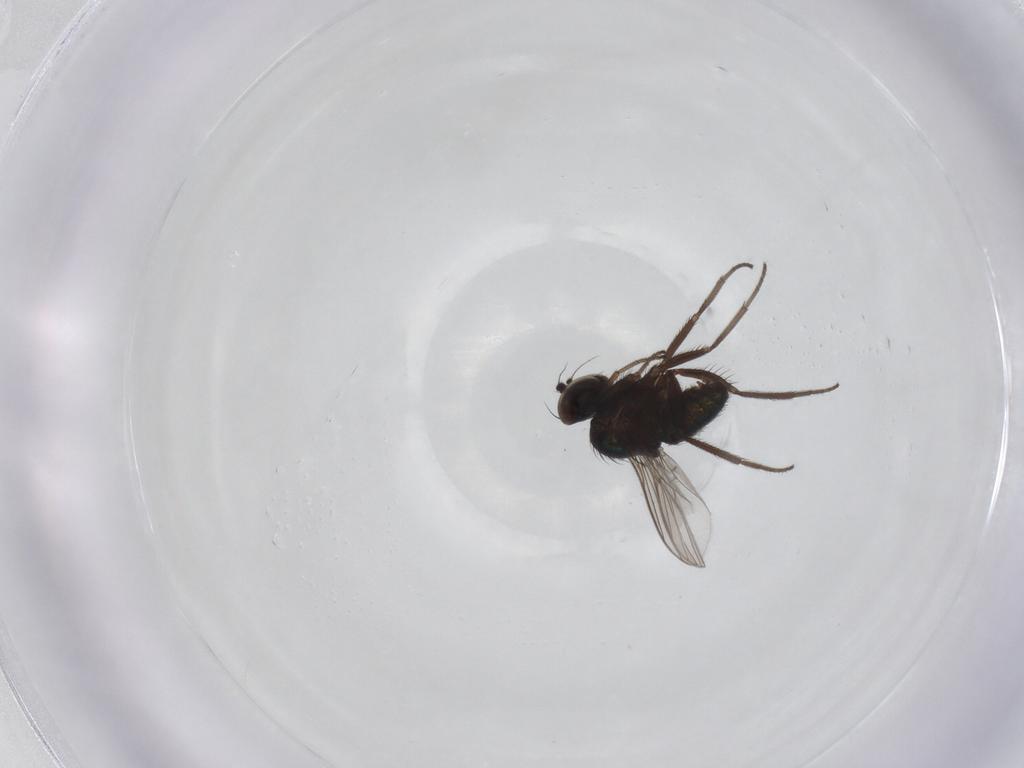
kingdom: Animalia
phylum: Arthropoda
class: Insecta
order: Diptera
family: Dolichopodidae
